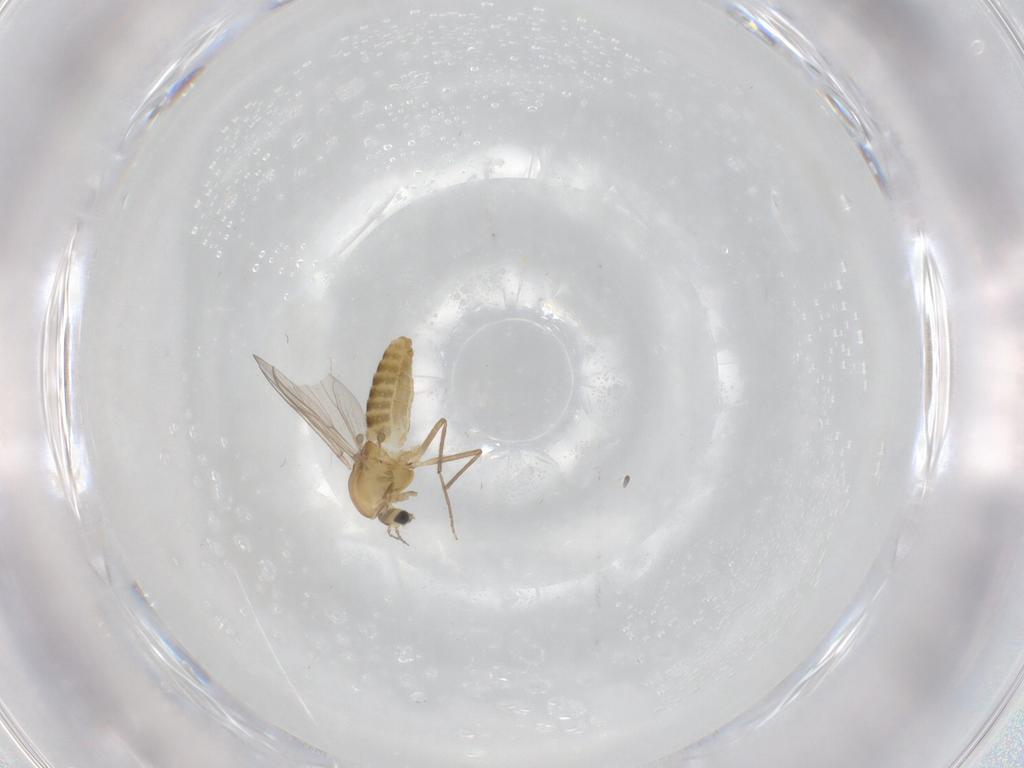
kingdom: Animalia
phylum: Arthropoda
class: Insecta
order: Diptera
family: Chironomidae
